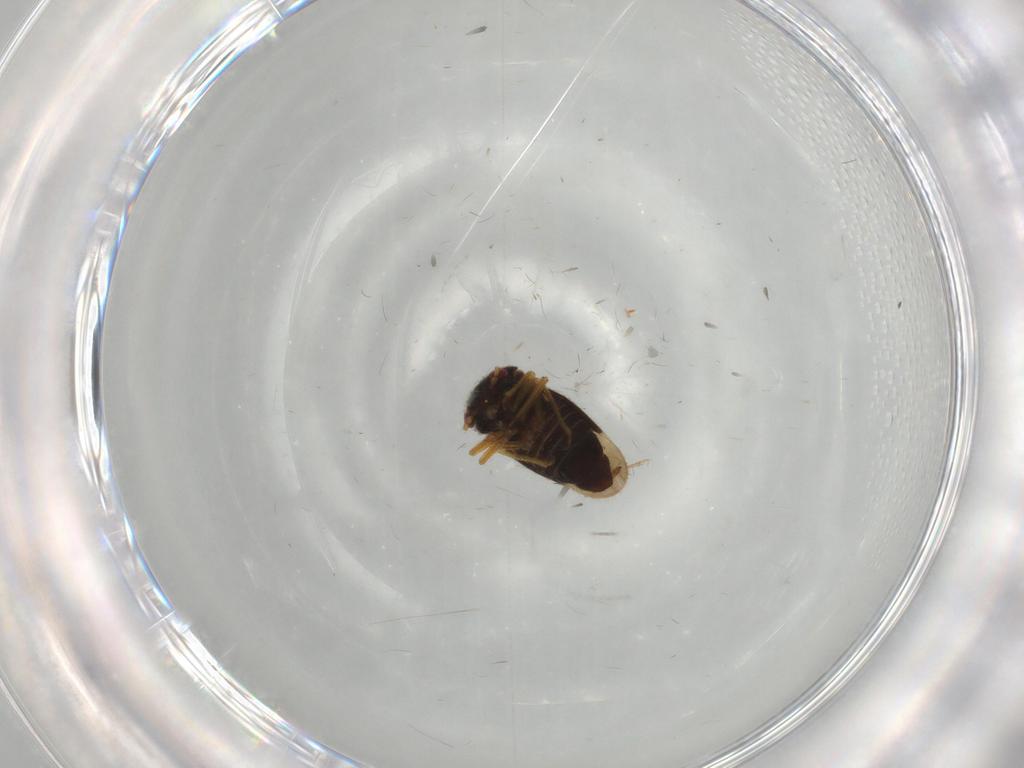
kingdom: Animalia
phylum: Arthropoda
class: Insecta
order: Hemiptera
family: Schizopteridae
